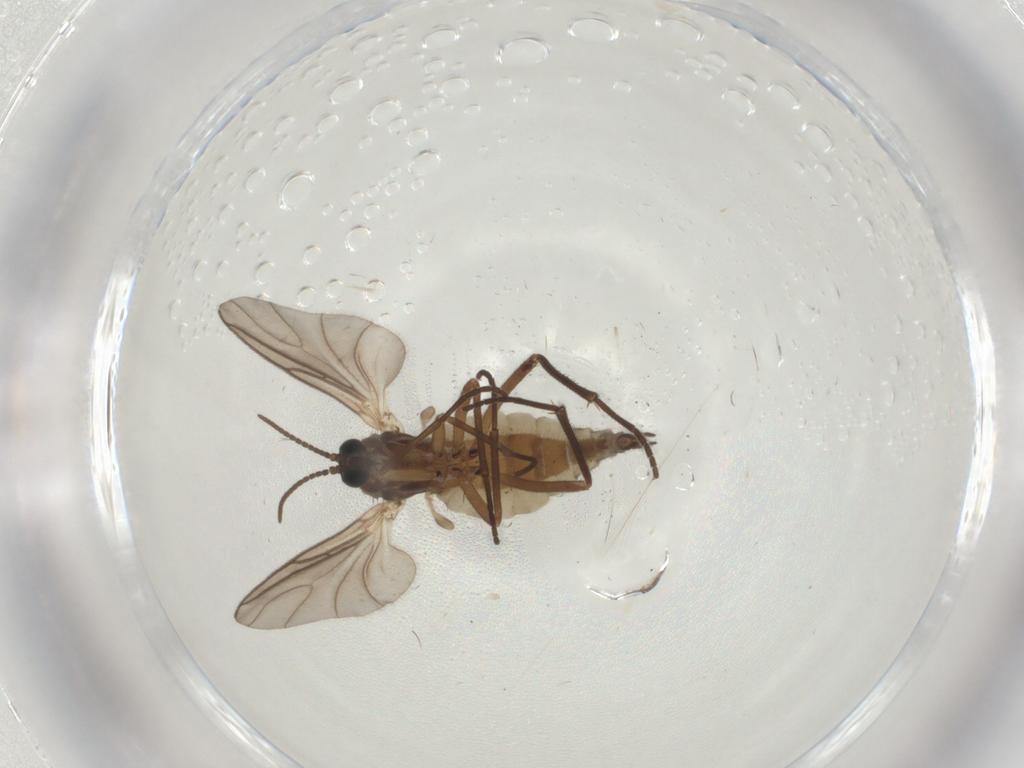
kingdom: Animalia
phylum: Arthropoda
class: Insecta
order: Diptera
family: Sciaridae
